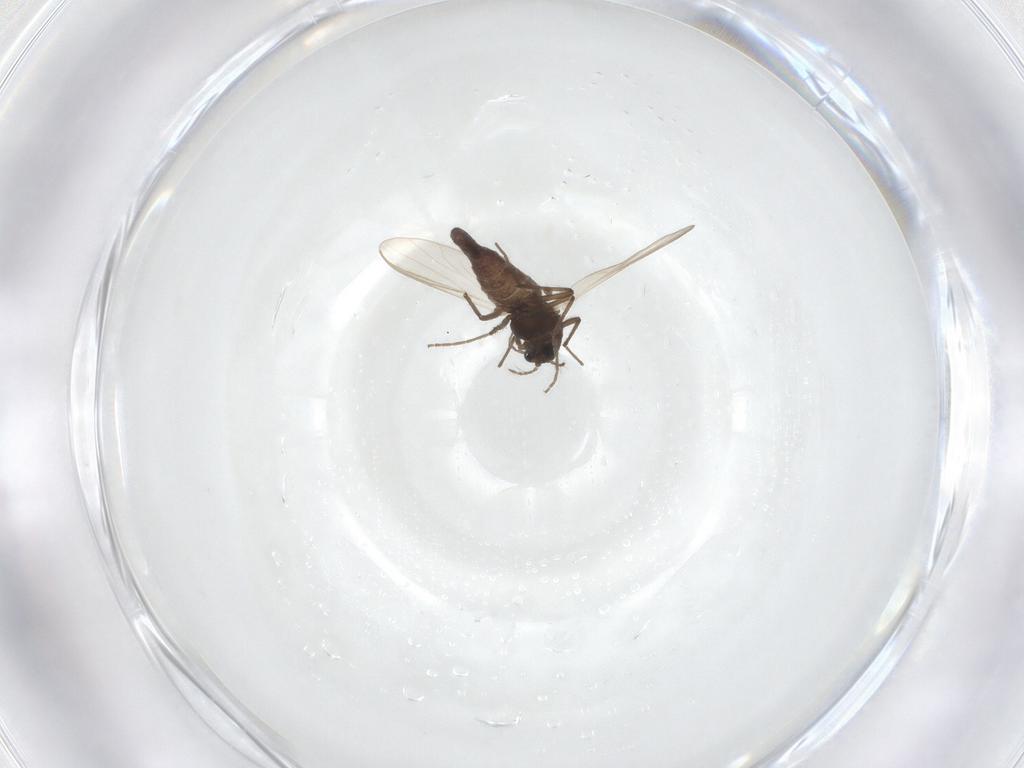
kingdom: Animalia
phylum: Arthropoda
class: Insecta
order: Diptera
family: Chironomidae
